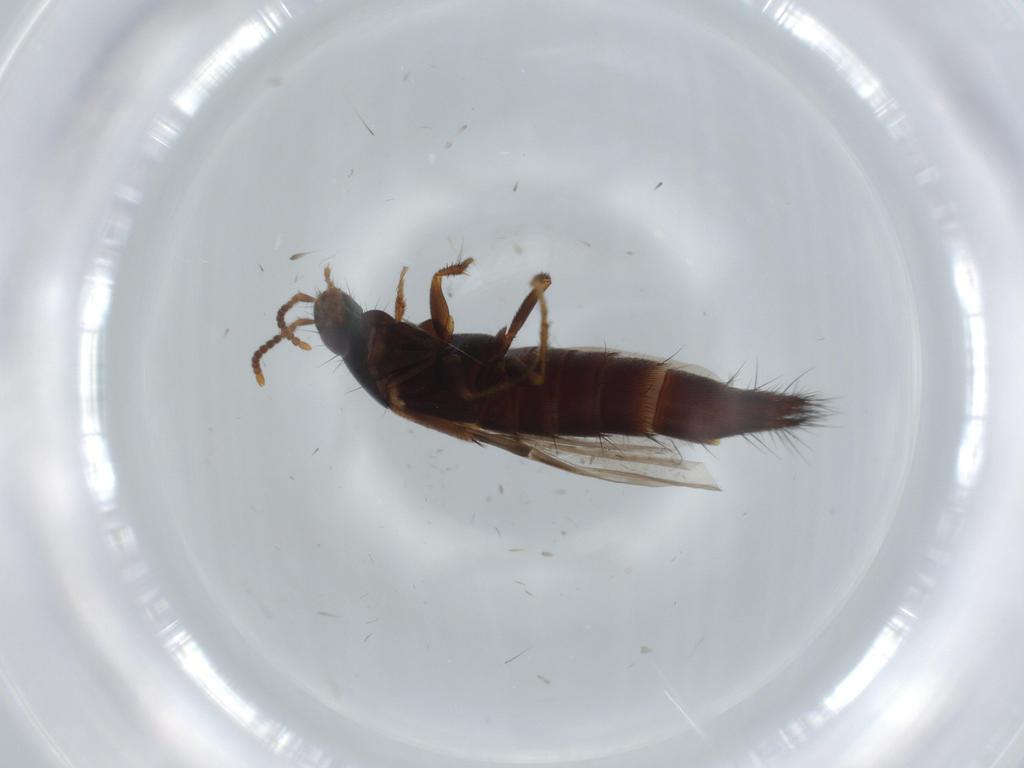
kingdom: Animalia
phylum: Arthropoda
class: Insecta
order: Coleoptera
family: Staphylinidae
